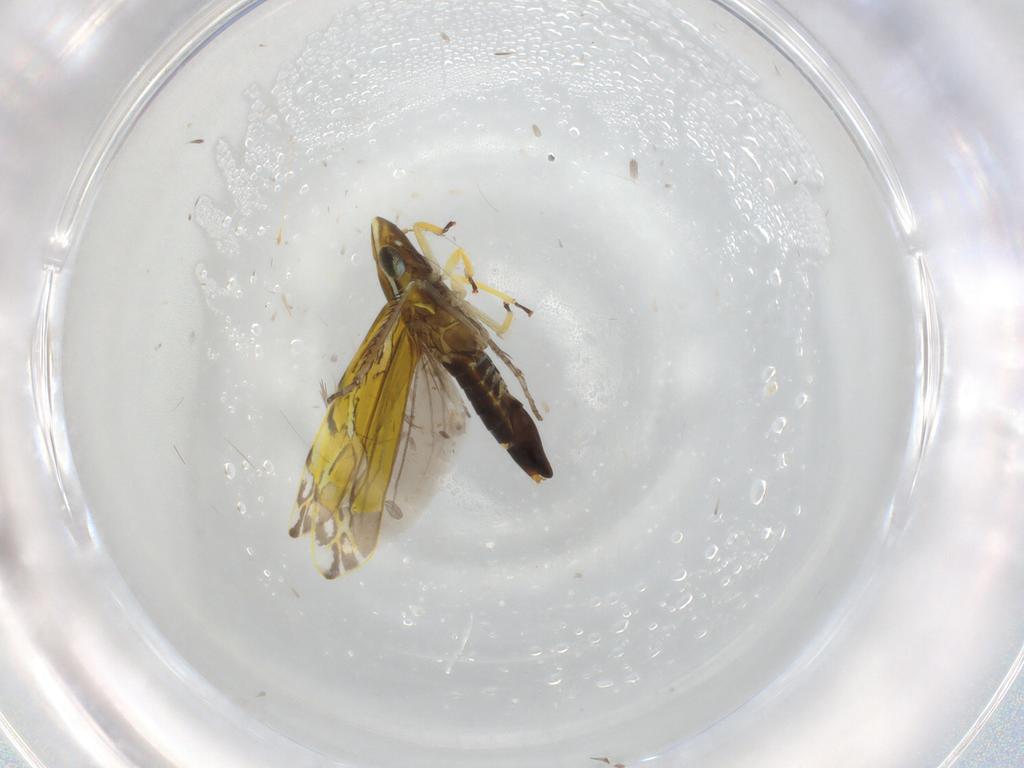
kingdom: Animalia
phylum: Arthropoda
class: Insecta
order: Hemiptera
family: Cicadellidae
